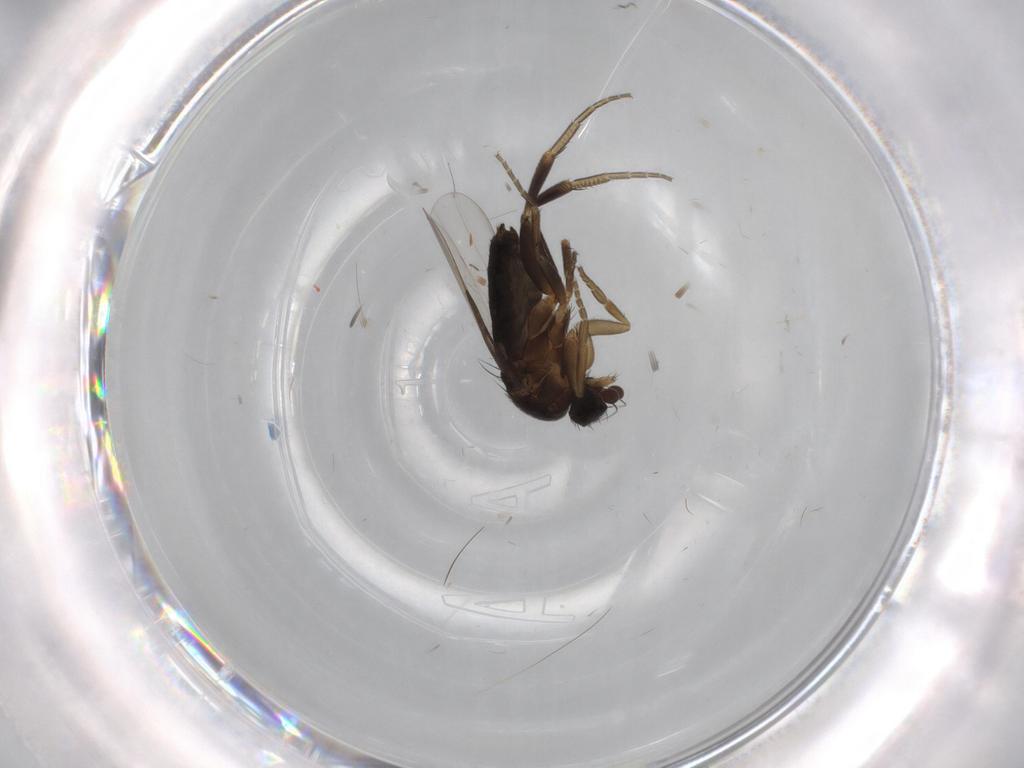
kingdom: Animalia
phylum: Arthropoda
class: Insecta
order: Diptera
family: Phoridae
